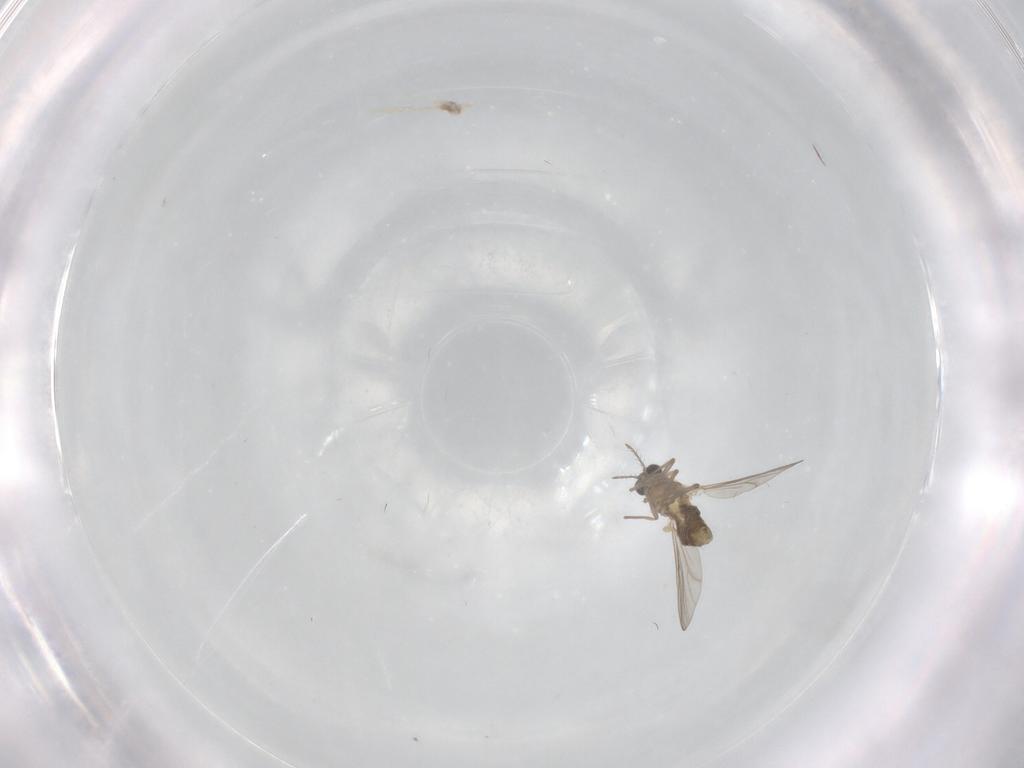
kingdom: Animalia
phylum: Arthropoda
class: Insecta
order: Diptera
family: Chironomidae
